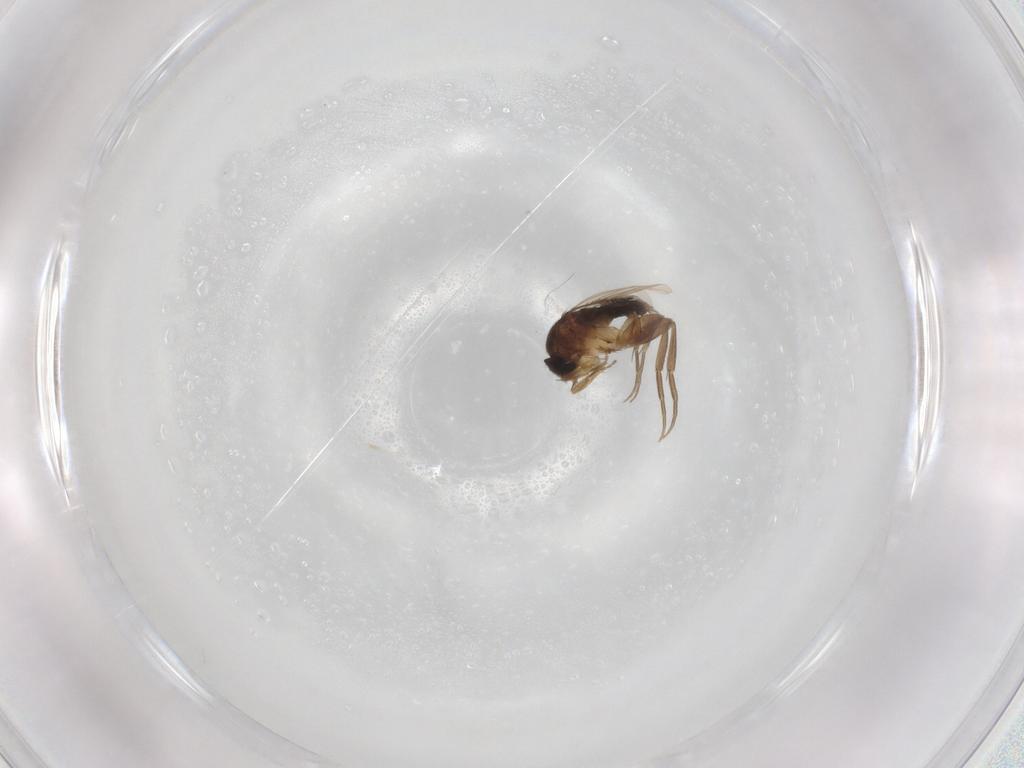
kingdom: Animalia
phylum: Arthropoda
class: Insecta
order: Diptera
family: Phoridae
